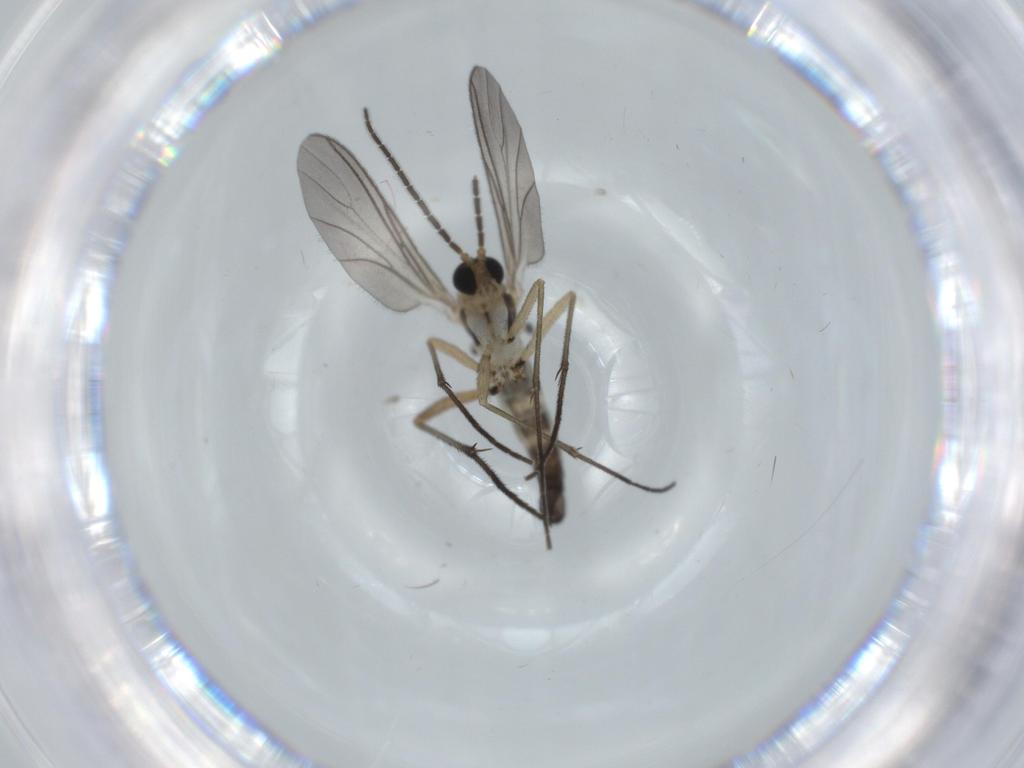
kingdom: Animalia
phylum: Arthropoda
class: Insecta
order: Diptera
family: Sciaridae
